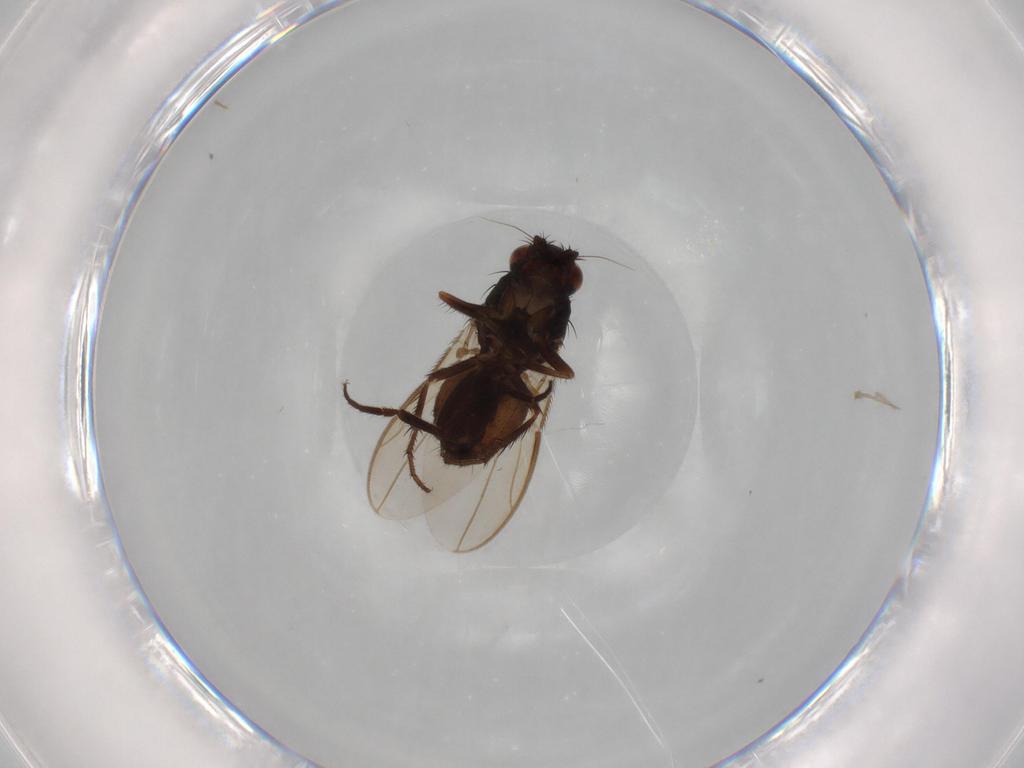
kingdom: Animalia
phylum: Arthropoda
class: Insecta
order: Diptera
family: Sphaeroceridae
